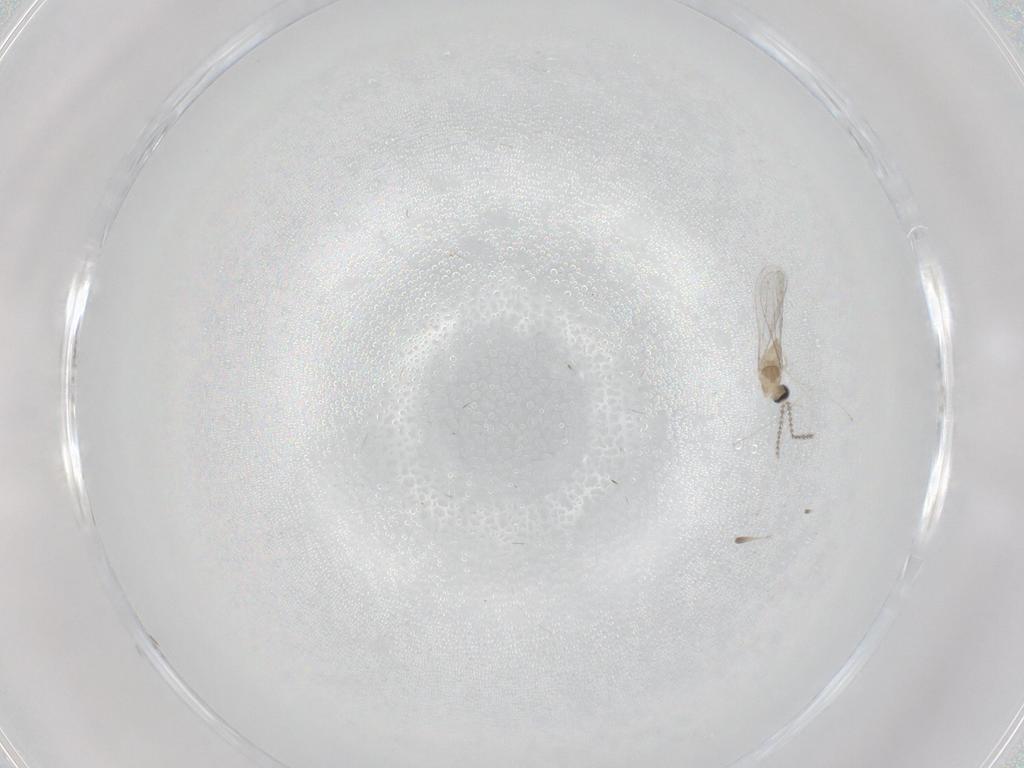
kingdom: Animalia
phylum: Arthropoda
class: Insecta
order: Diptera
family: Cecidomyiidae
